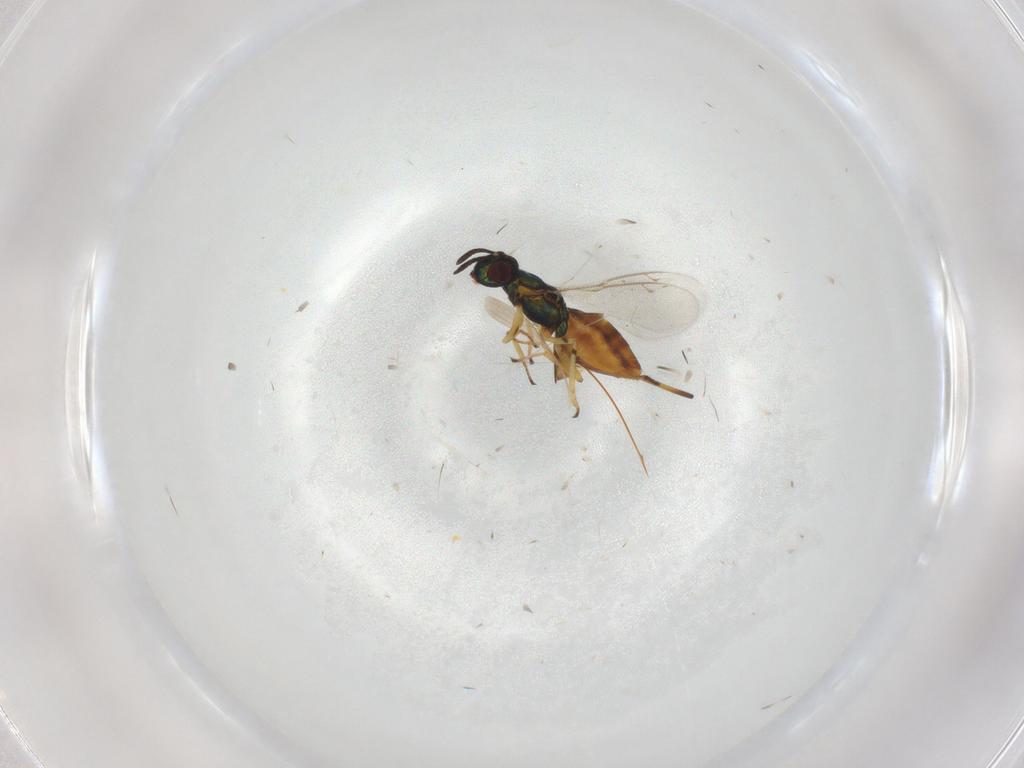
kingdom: Animalia
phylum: Arthropoda
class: Insecta
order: Hymenoptera
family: Eupelmidae
